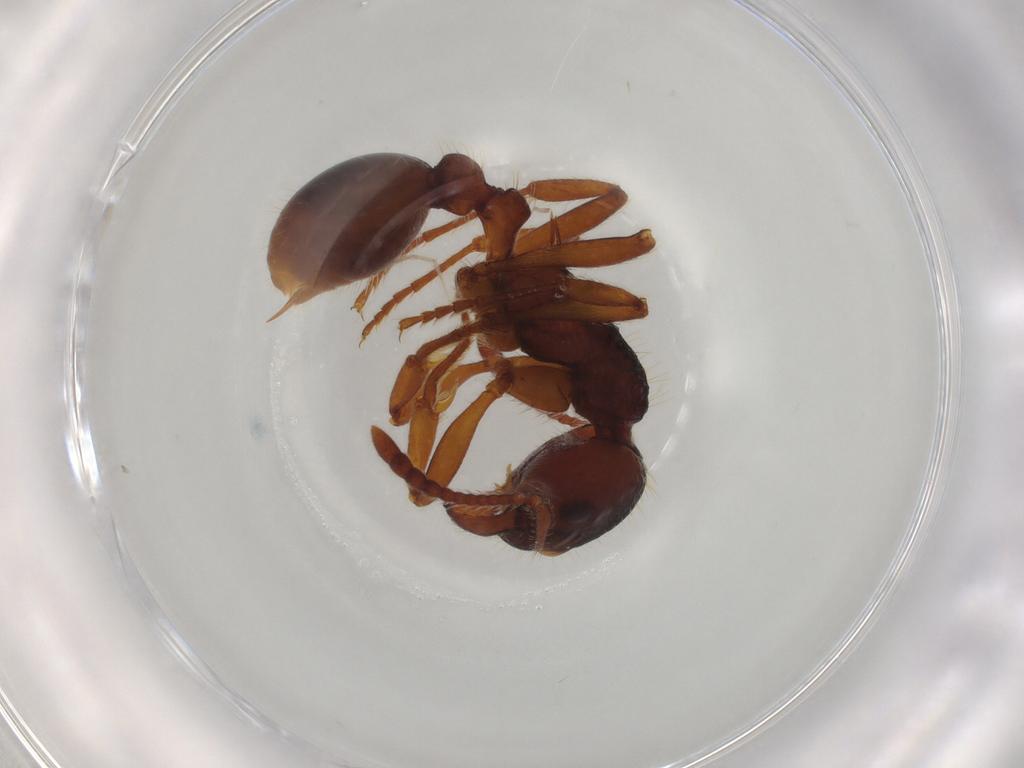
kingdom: Animalia
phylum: Arthropoda
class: Insecta
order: Hymenoptera
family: Formicidae
